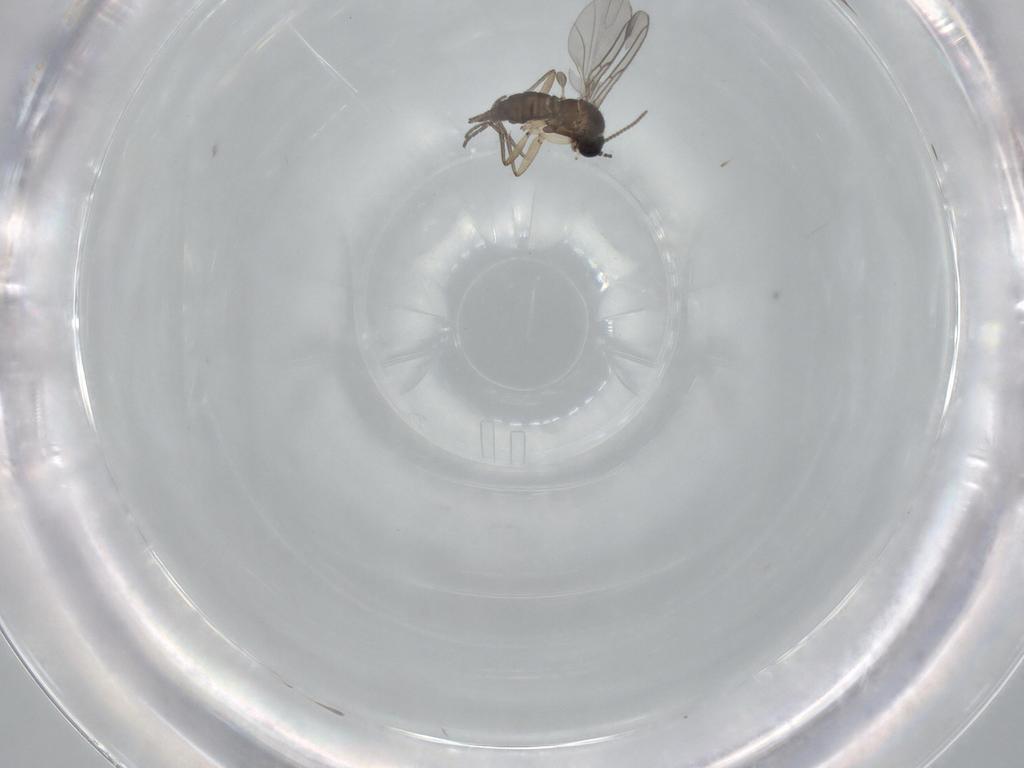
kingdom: Animalia
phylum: Arthropoda
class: Insecta
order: Diptera
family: Ceratopogonidae
